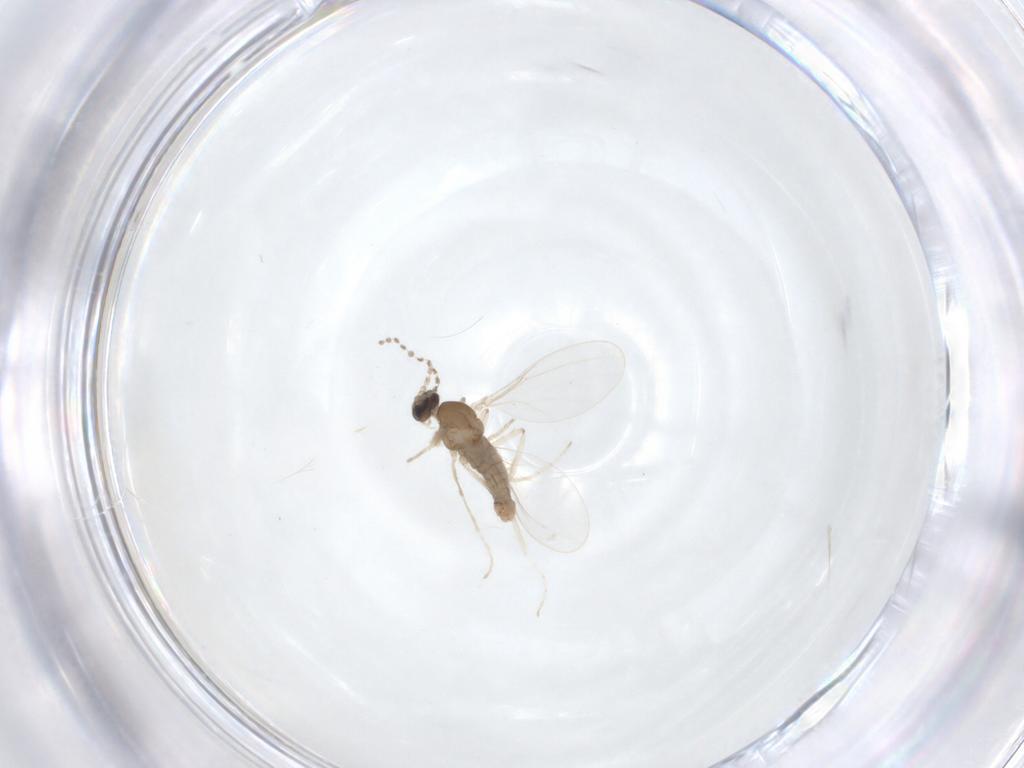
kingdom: Animalia
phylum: Arthropoda
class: Insecta
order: Diptera
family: Cecidomyiidae
